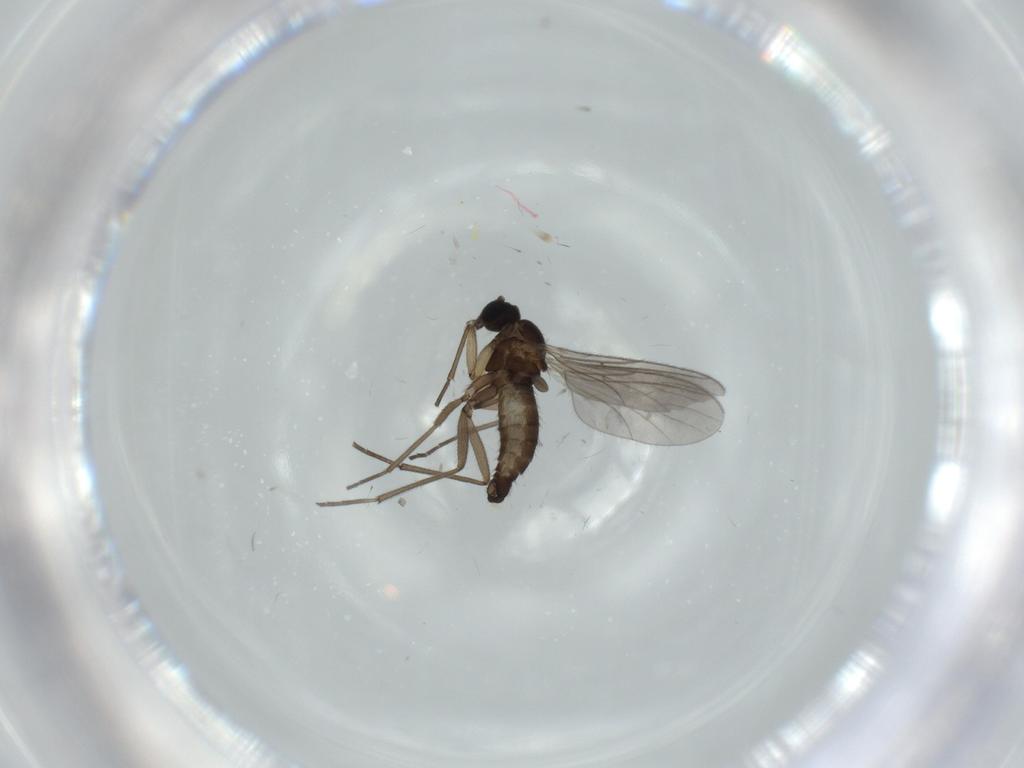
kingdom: Animalia
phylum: Arthropoda
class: Insecta
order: Diptera
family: Sciaridae
